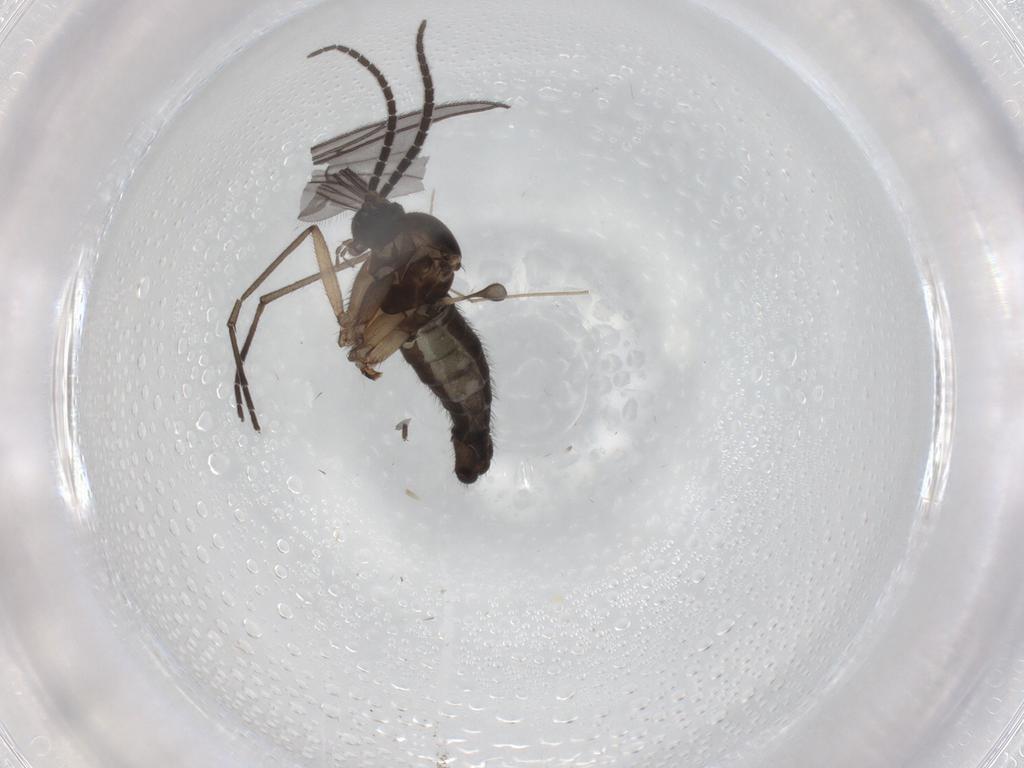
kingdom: Animalia
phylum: Arthropoda
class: Insecta
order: Diptera
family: Sciaridae
